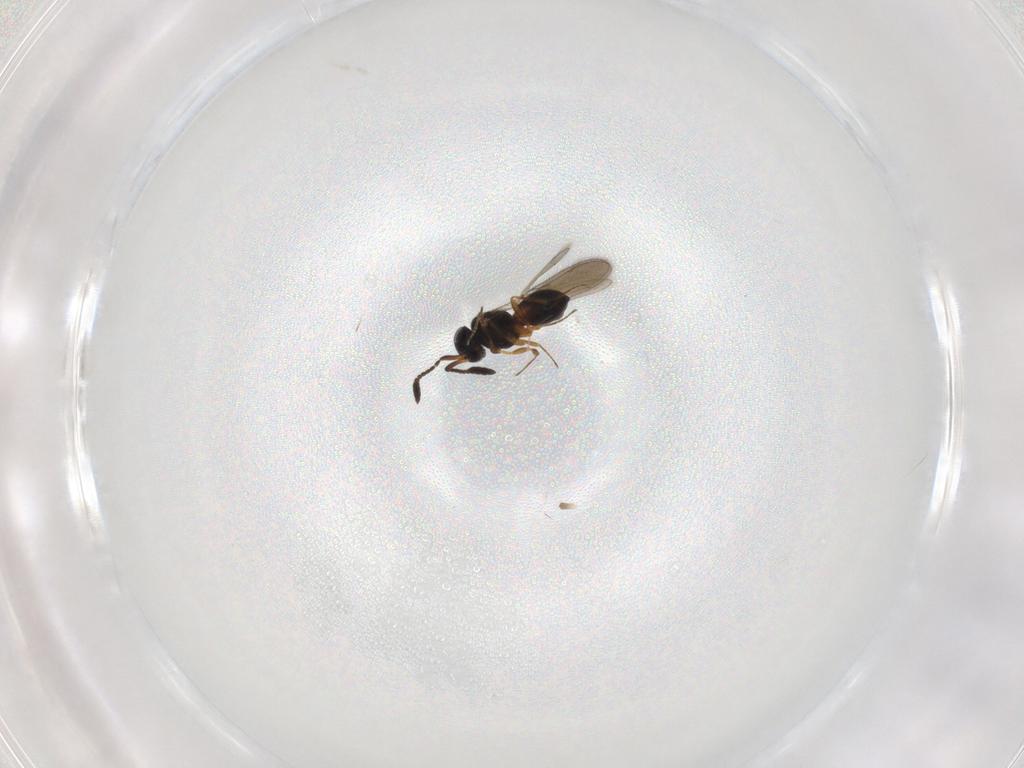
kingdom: Animalia
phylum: Arthropoda
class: Insecta
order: Hymenoptera
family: Scelionidae
